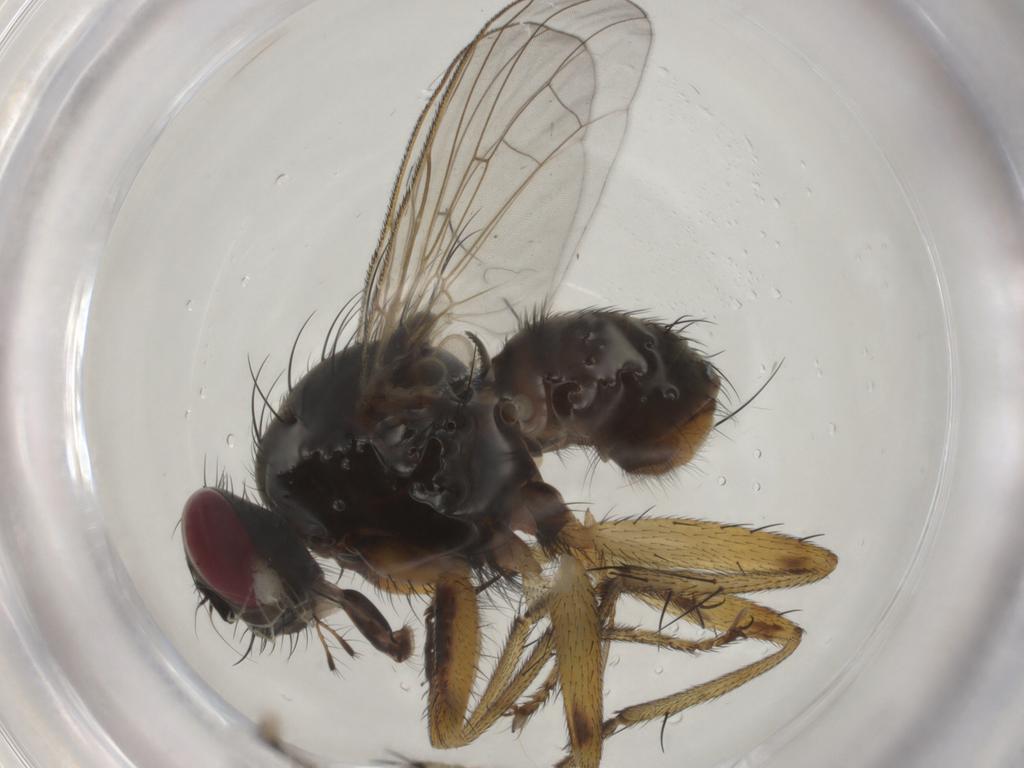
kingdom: Animalia
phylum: Arthropoda
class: Insecta
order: Diptera
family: Muscidae
